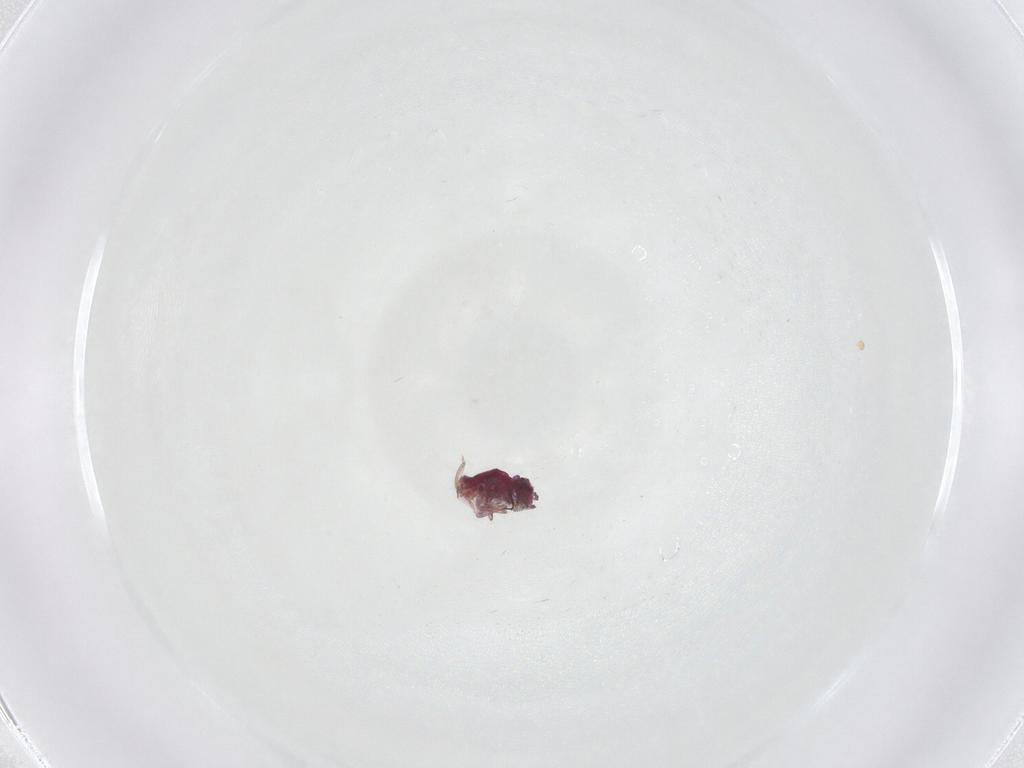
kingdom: Animalia
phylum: Arthropoda
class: Collembola
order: Symphypleona
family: Sminthuridae
